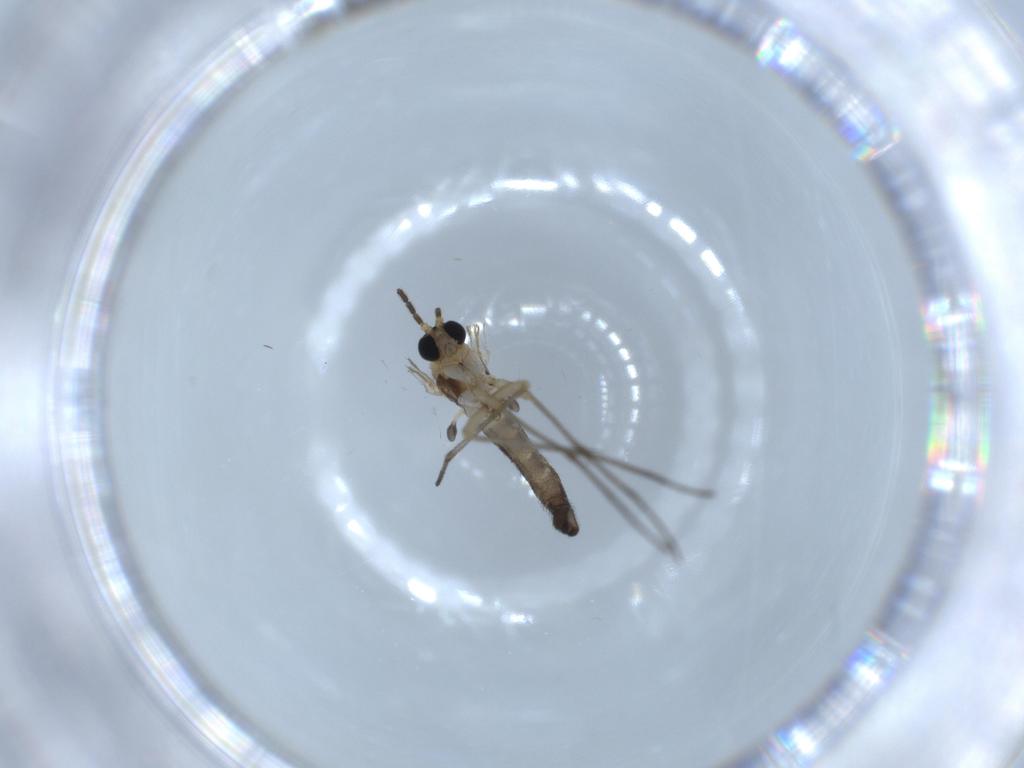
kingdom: Animalia
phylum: Arthropoda
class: Insecta
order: Diptera
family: Sciaridae
